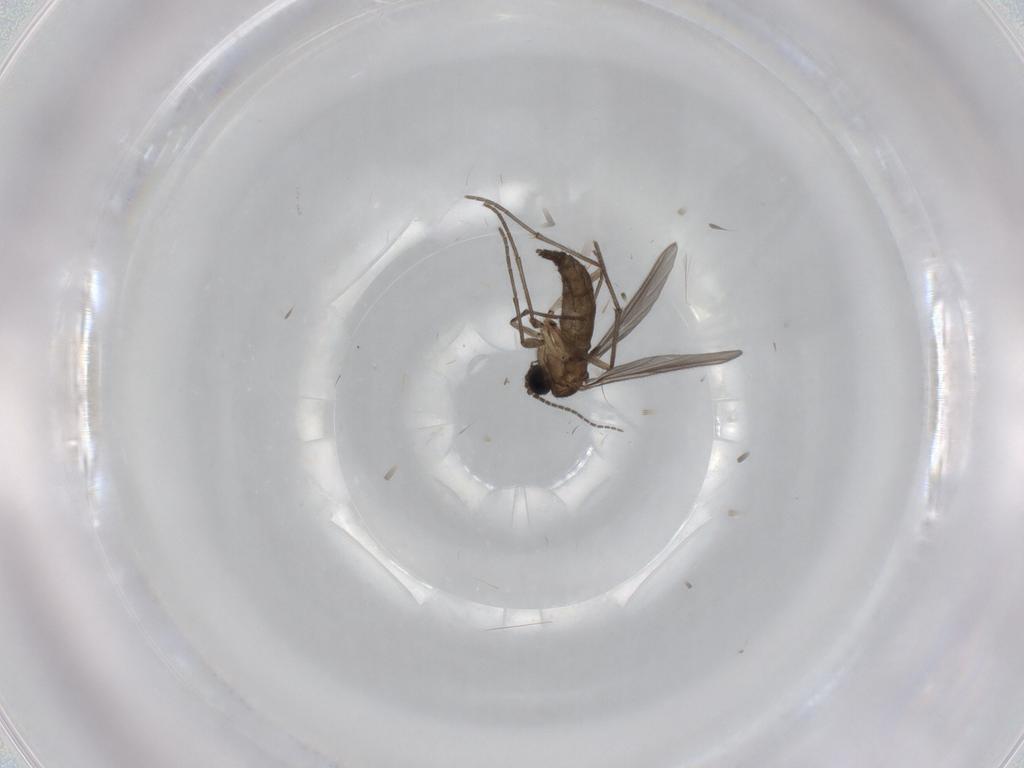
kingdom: Animalia
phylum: Arthropoda
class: Insecta
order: Diptera
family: Sciaridae
